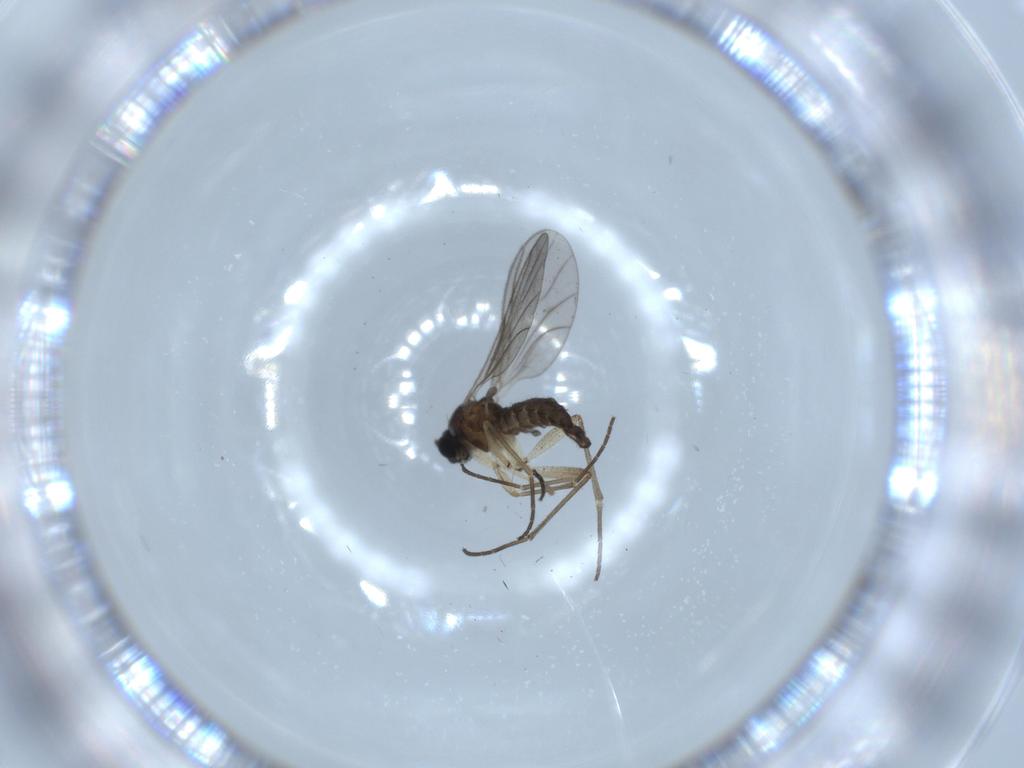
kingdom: Animalia
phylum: Arthropoda
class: Insecta
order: Diptera
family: Sciaridae
